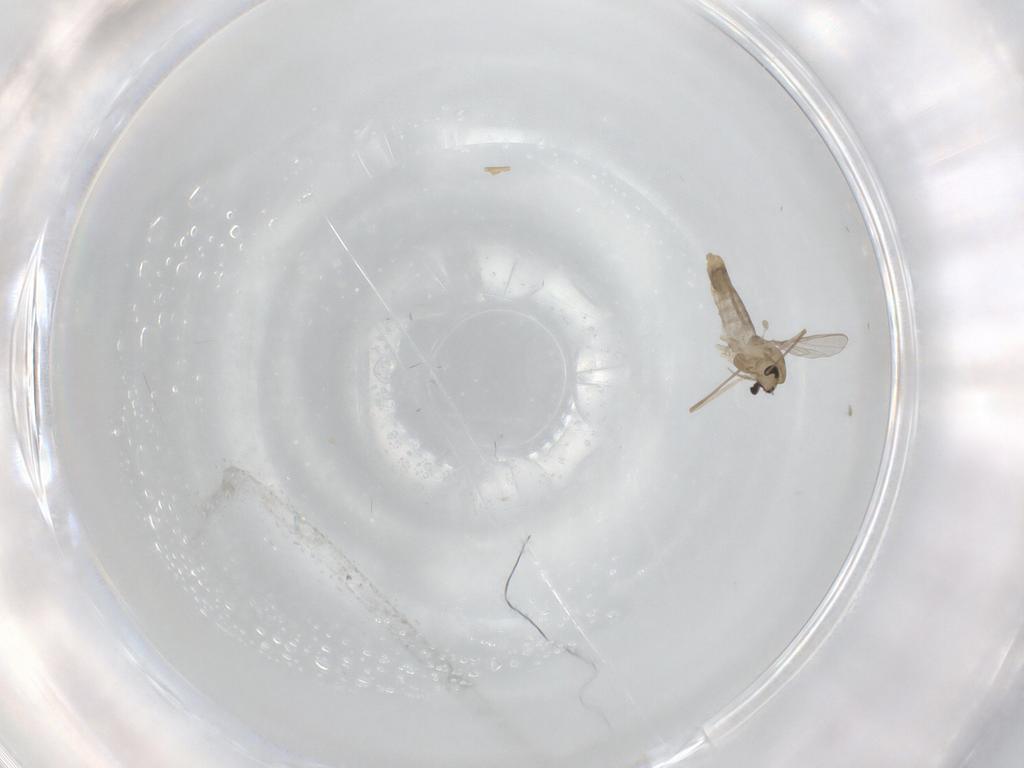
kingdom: Animalia
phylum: Arthropoda
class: Insecta
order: Diptera
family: Chironomidae
